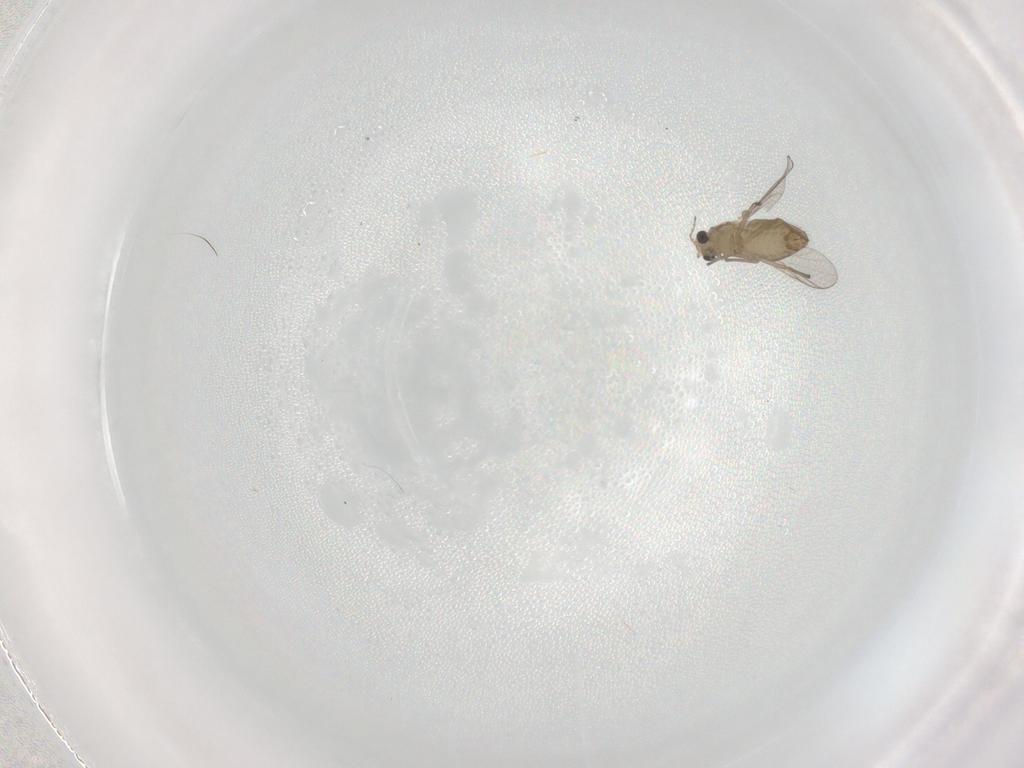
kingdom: Animalia
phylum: Arthropoda
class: Insecta
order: Diptera
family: Chironomidae
